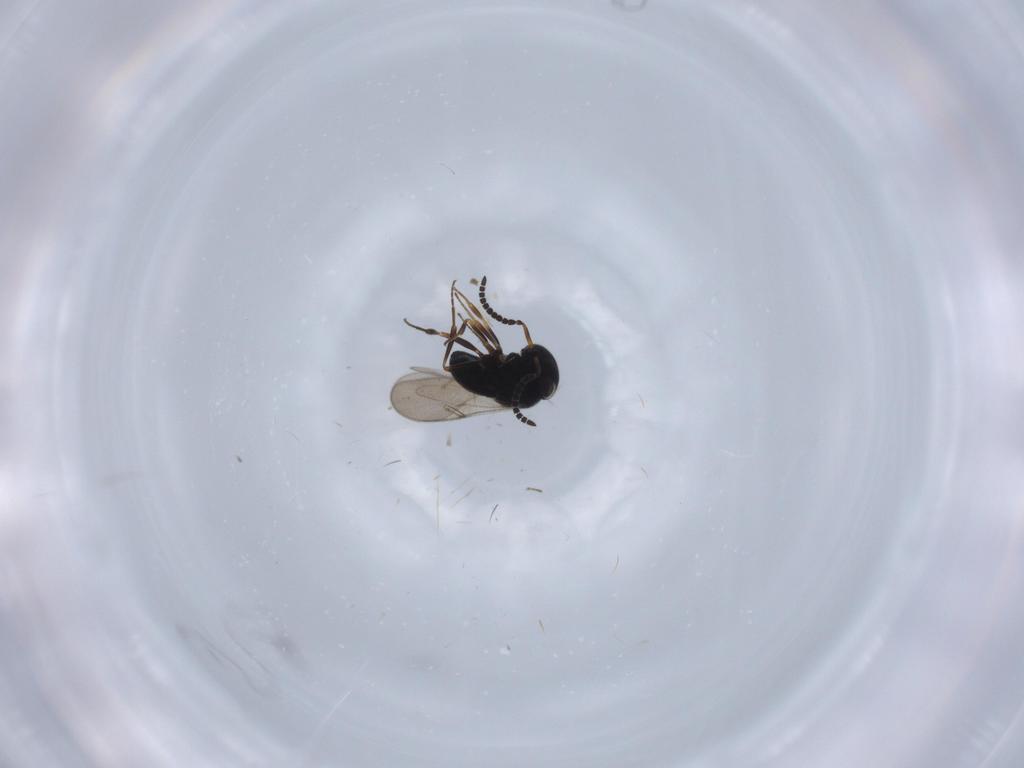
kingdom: Animalia
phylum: Arthropoda
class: Insecta
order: Hymenoptera
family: Scelionidae
